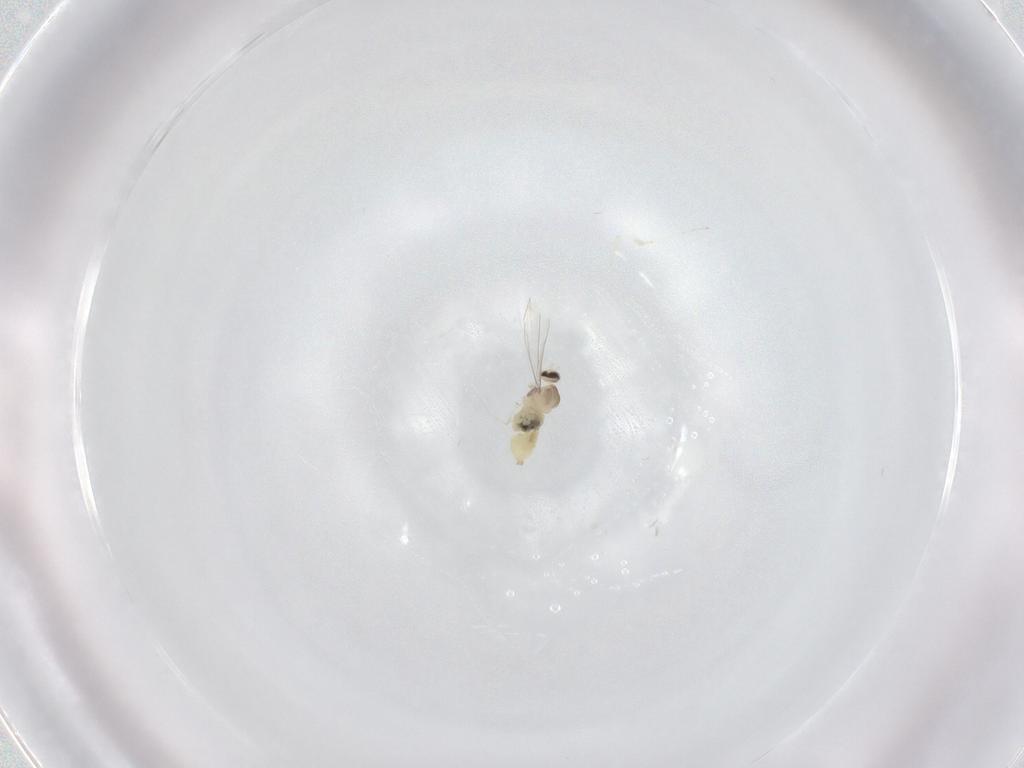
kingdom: Animalia
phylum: Arthropoda
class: Insecta
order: Diptera
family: Cecidomyiidae
